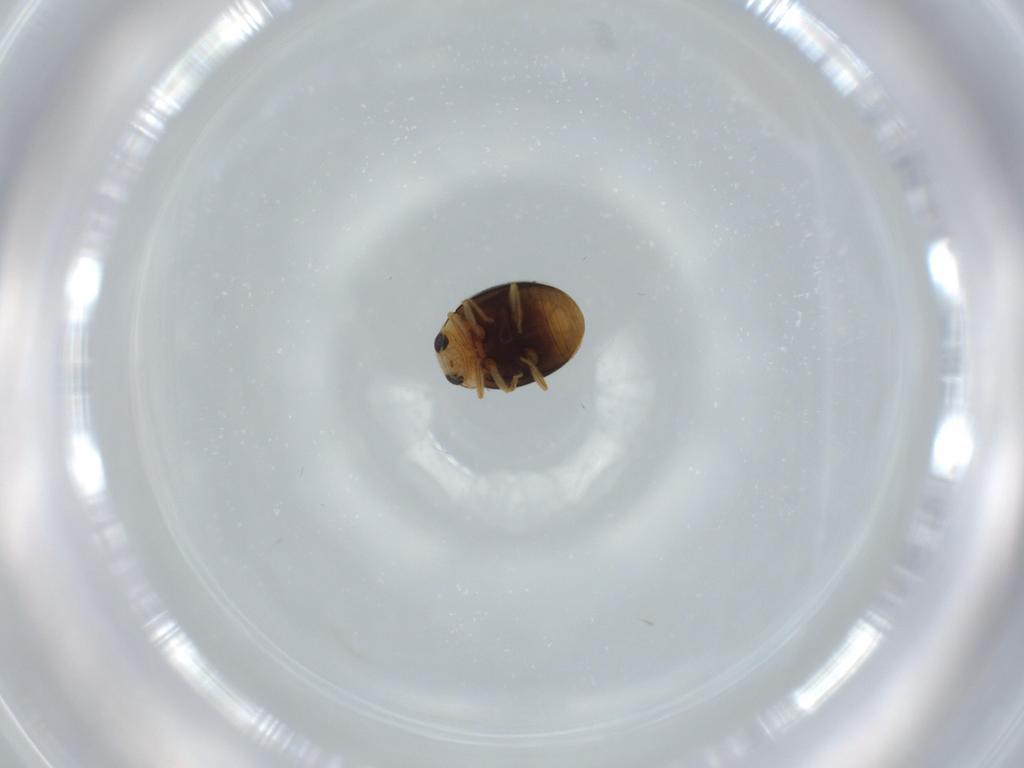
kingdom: Animalia
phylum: Arthropoda
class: Insecta
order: Coleoptera
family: Coccinellidae
